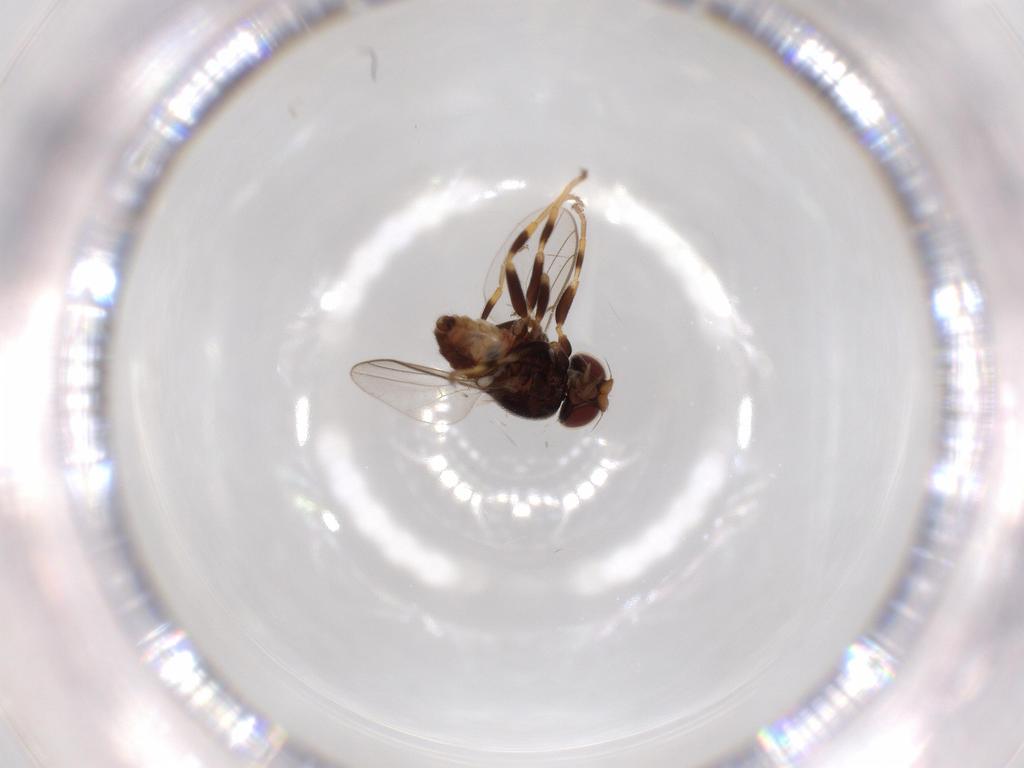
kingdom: Animalia
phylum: Arthropoda
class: Insecta
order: Diptera
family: Chloropidae
